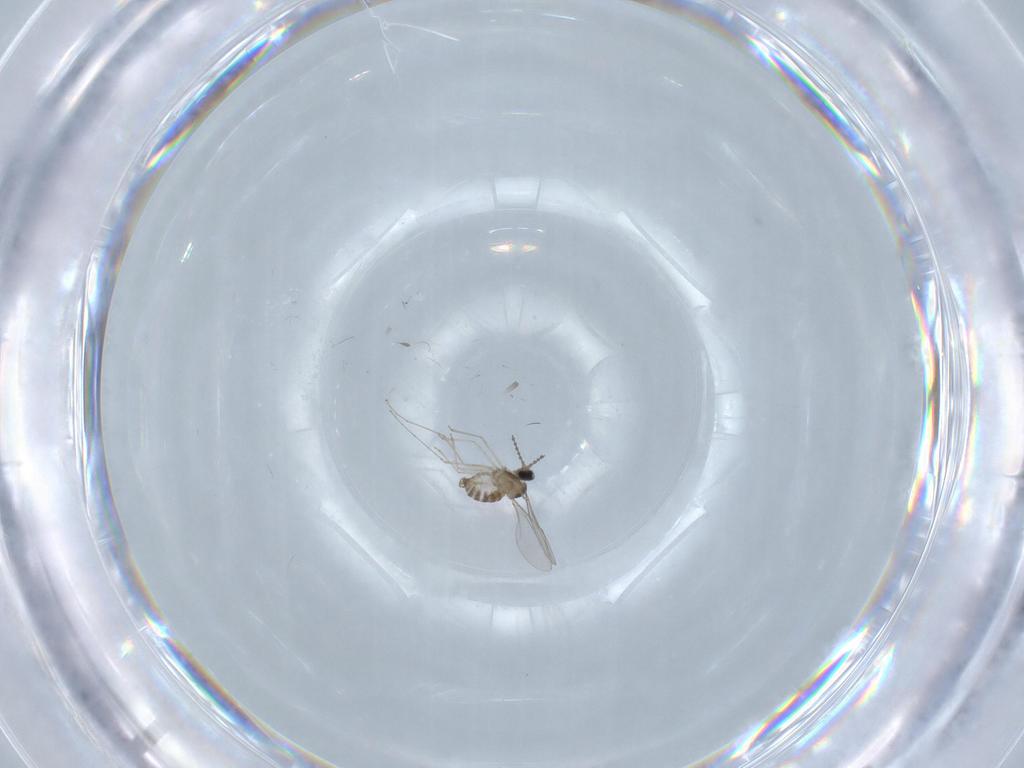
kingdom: Animalia
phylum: Arthropoda
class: Insecta
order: Diptera
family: Cecidomyiidae
